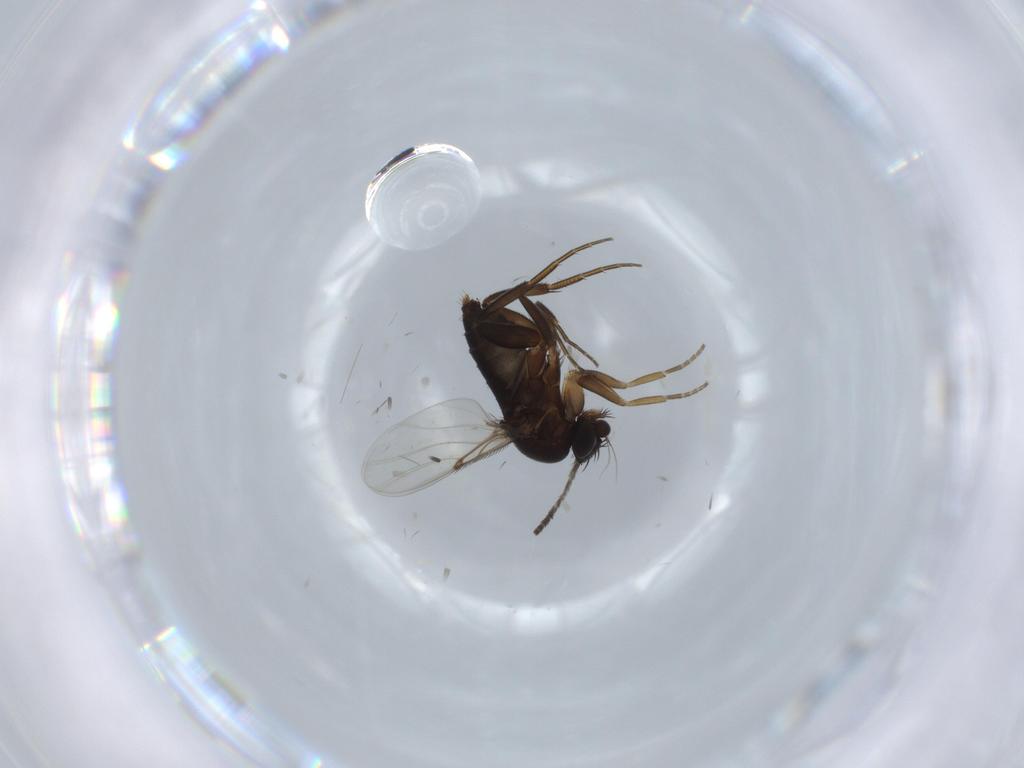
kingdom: Animalia
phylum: Arthropoda
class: Insecta
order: Diptera
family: Phoridae
